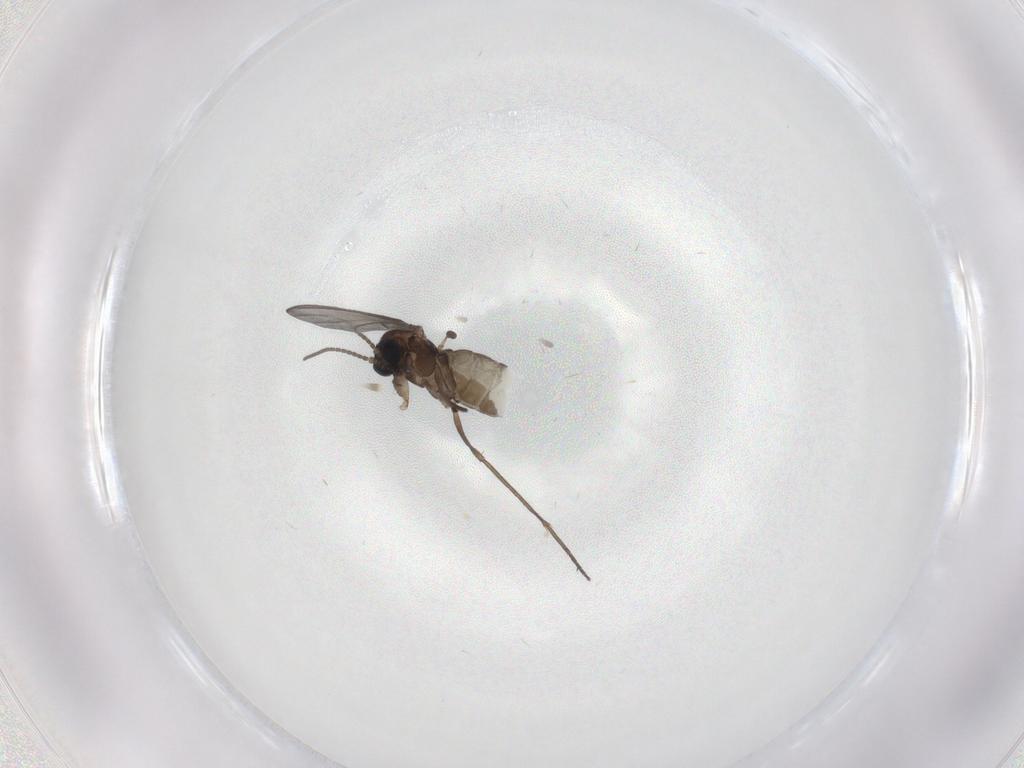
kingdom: Animalia
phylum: Arthropoda
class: Insecta
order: Diptera
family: Sciaridae
